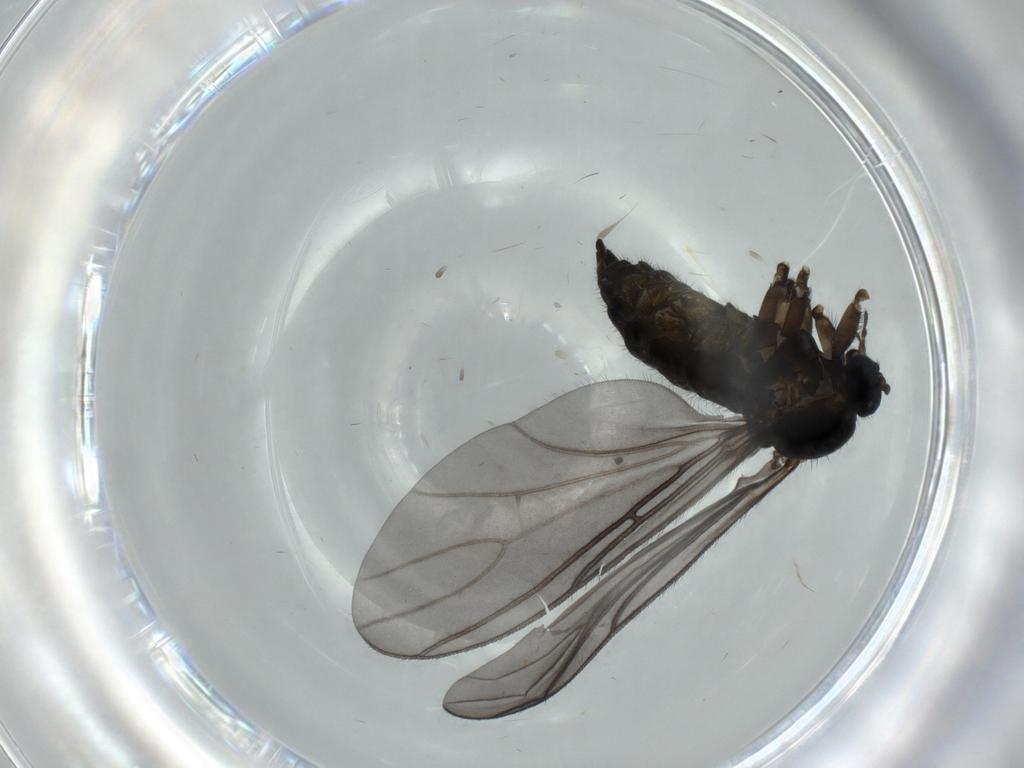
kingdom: Animalia
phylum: Arthropoda
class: Insecta
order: Diptera
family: Sciaridae
